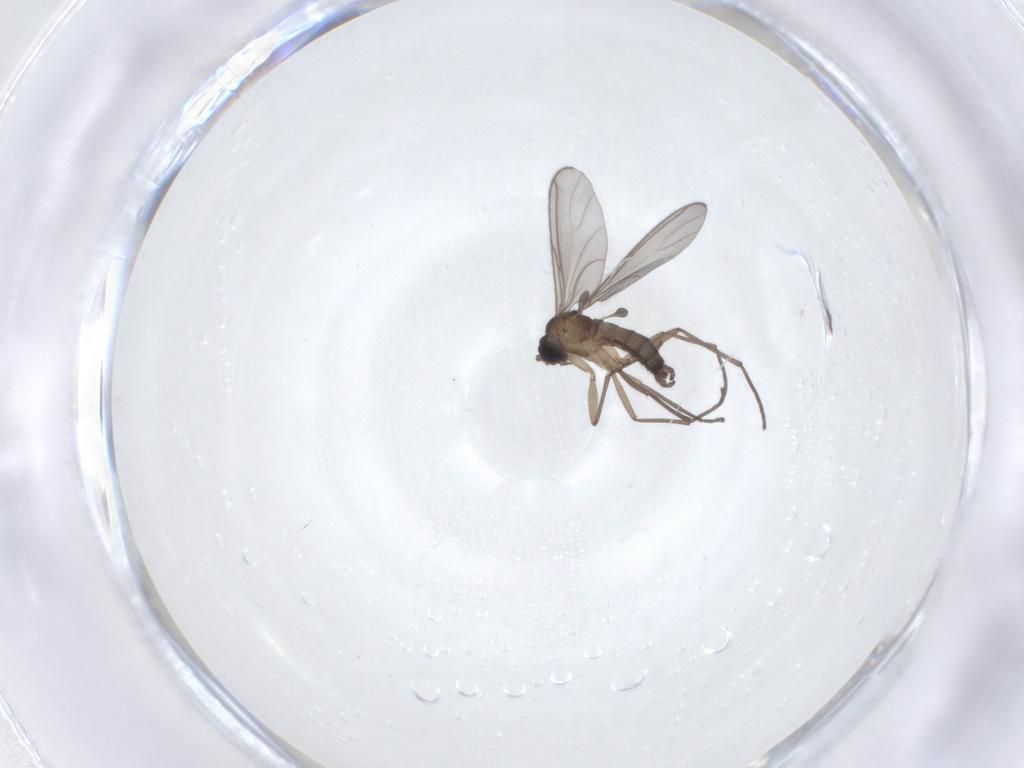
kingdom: Animalia
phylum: Arthropoda
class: Insecta
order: Diptera
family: Sciaridae
